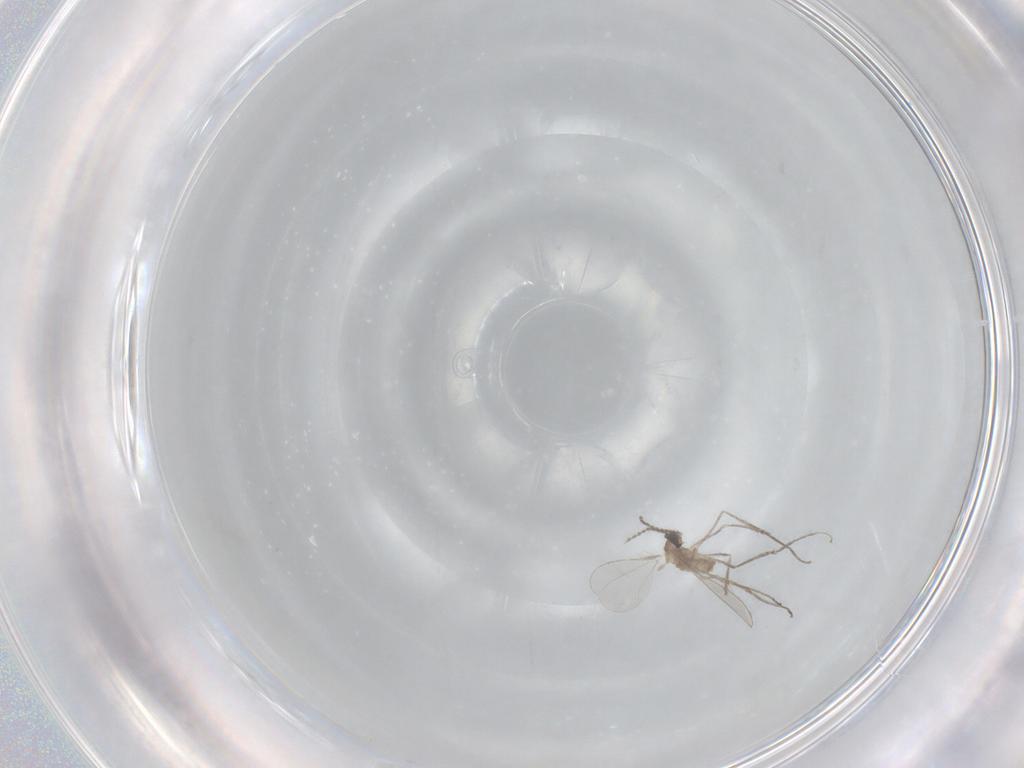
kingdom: Animalia
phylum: Arthropoda
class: Insecta
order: Diptera
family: Cecidomyiidae
